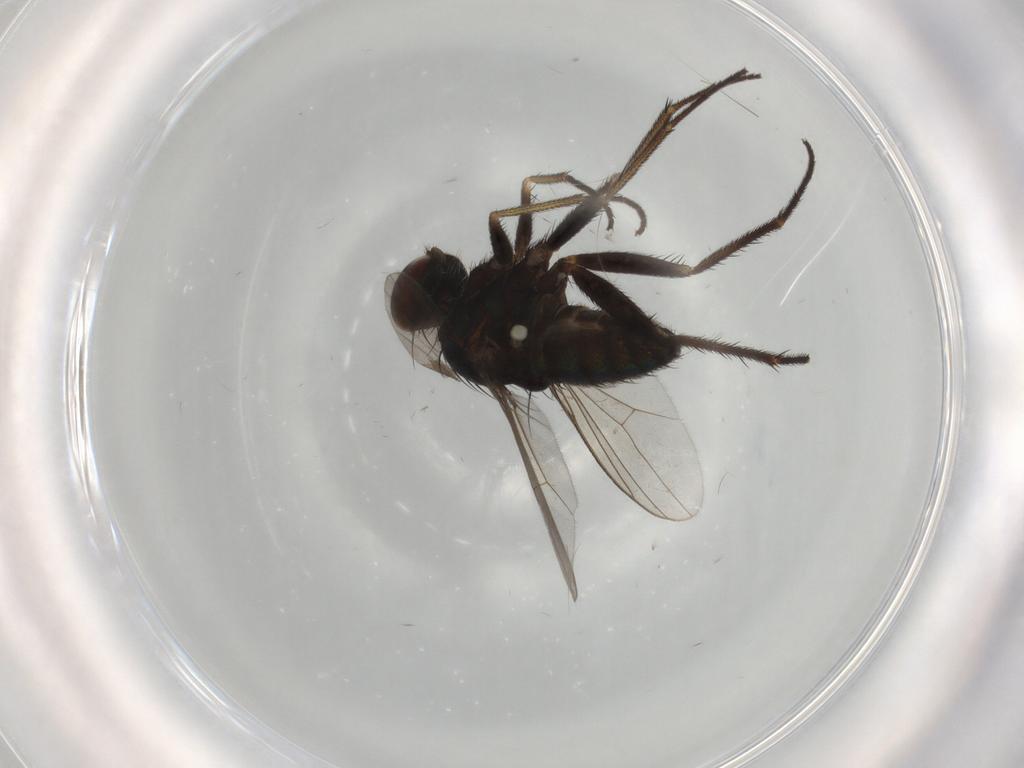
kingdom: Animalia
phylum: Arthropoda
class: Insecta
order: Diptera
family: Dolichopodidae
